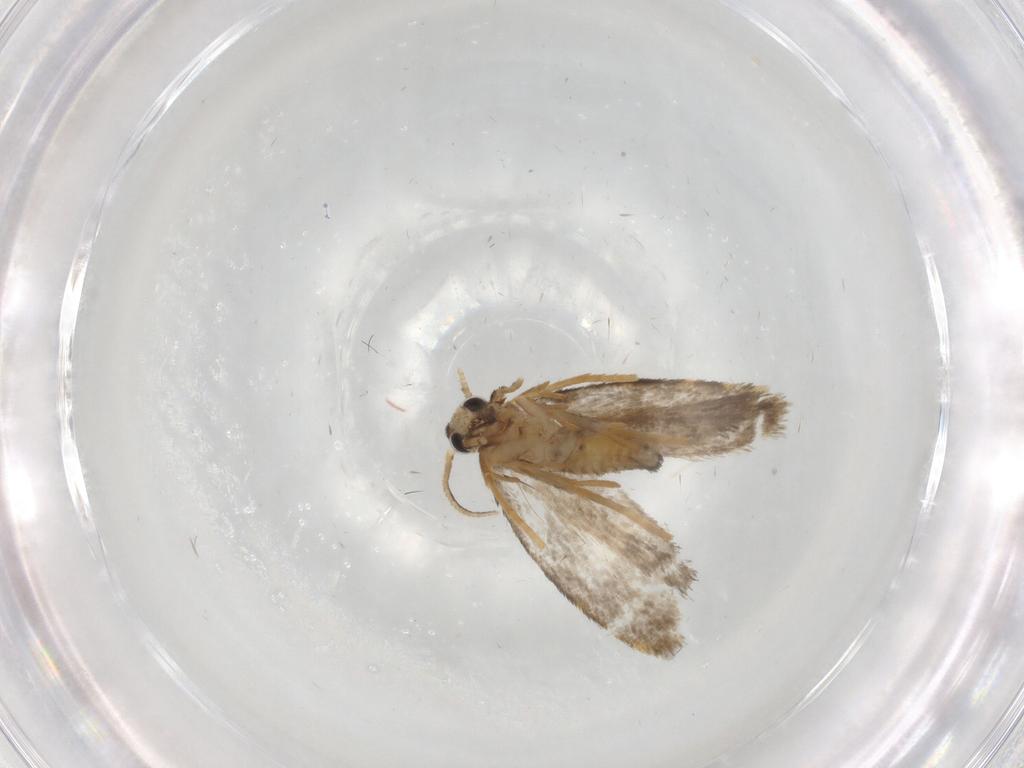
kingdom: Animalia
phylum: Arthropoda
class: Insecta
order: Lepidoptera
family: Psychidae
